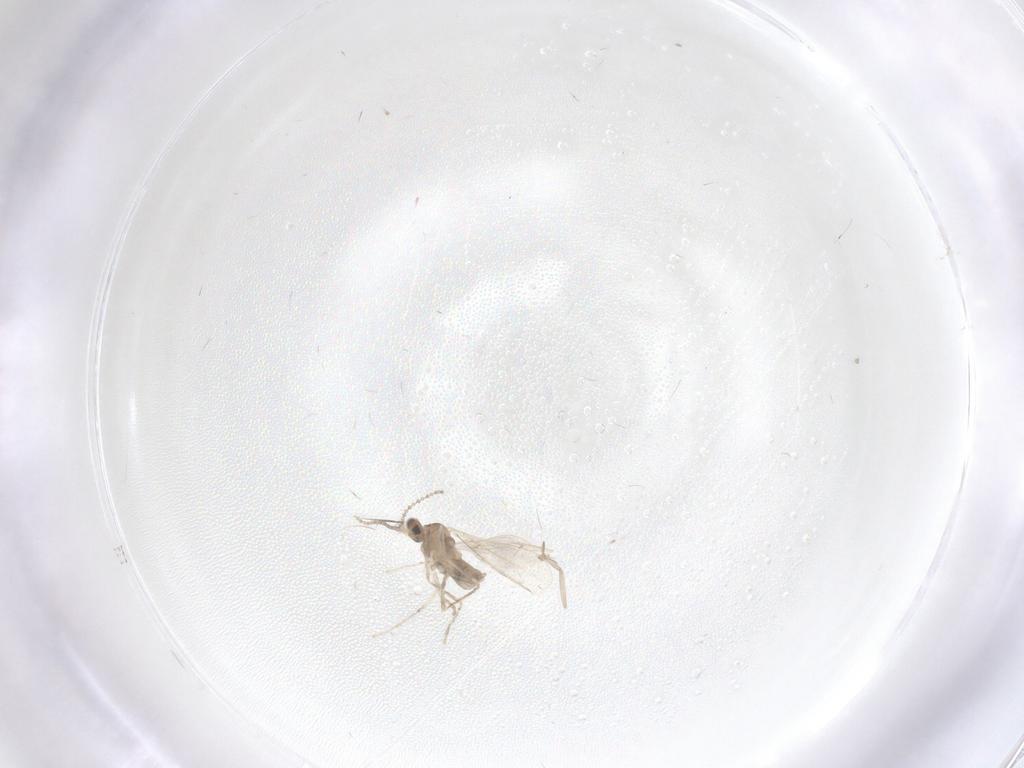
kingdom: Animalia
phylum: Arthropoda
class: Insecta
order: Diptera
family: Cecidomyiidae
